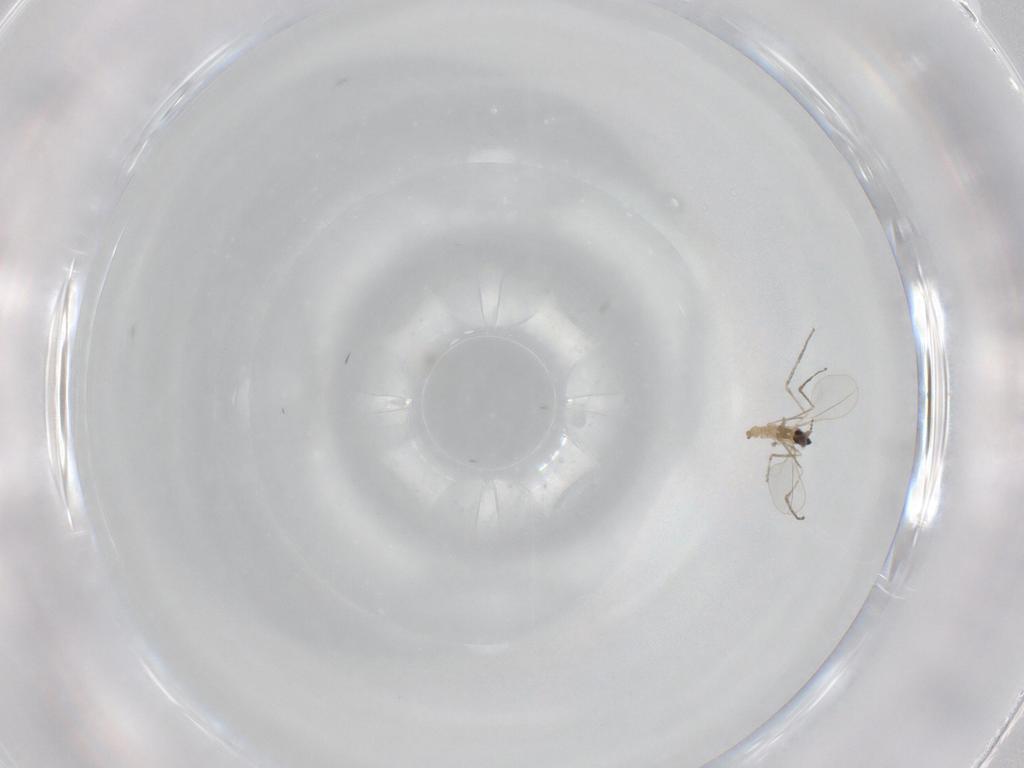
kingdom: Animalia
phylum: Arthropoda
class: Insecta
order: Diptera
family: Cecidomyiidae
